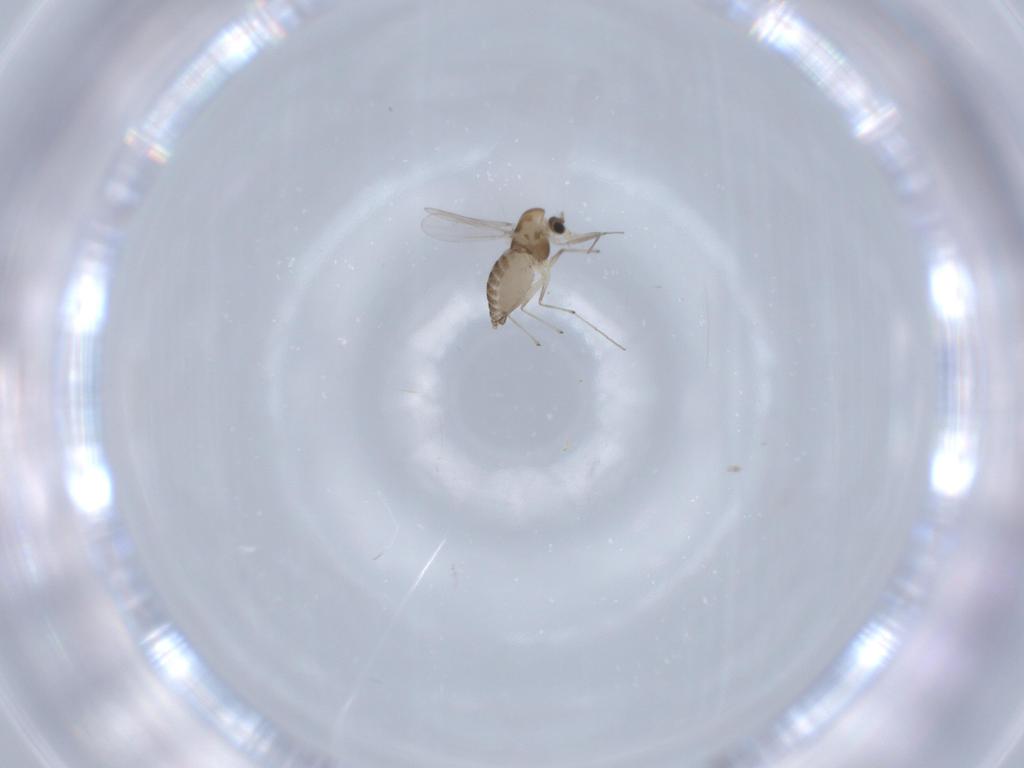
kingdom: Animalia
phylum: Arthropoda
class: Insecta
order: Diptera
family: Chironomidae
